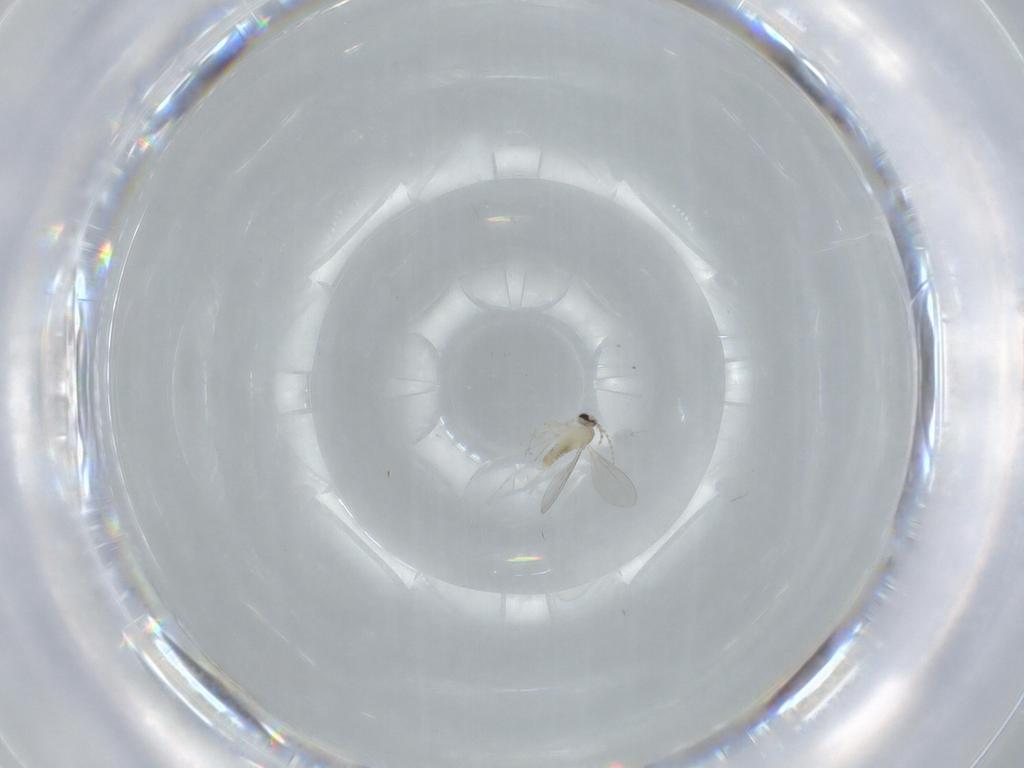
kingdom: Animalia
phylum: Arthropoda
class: Insecta
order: Diptera
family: Cecidomyiidae
